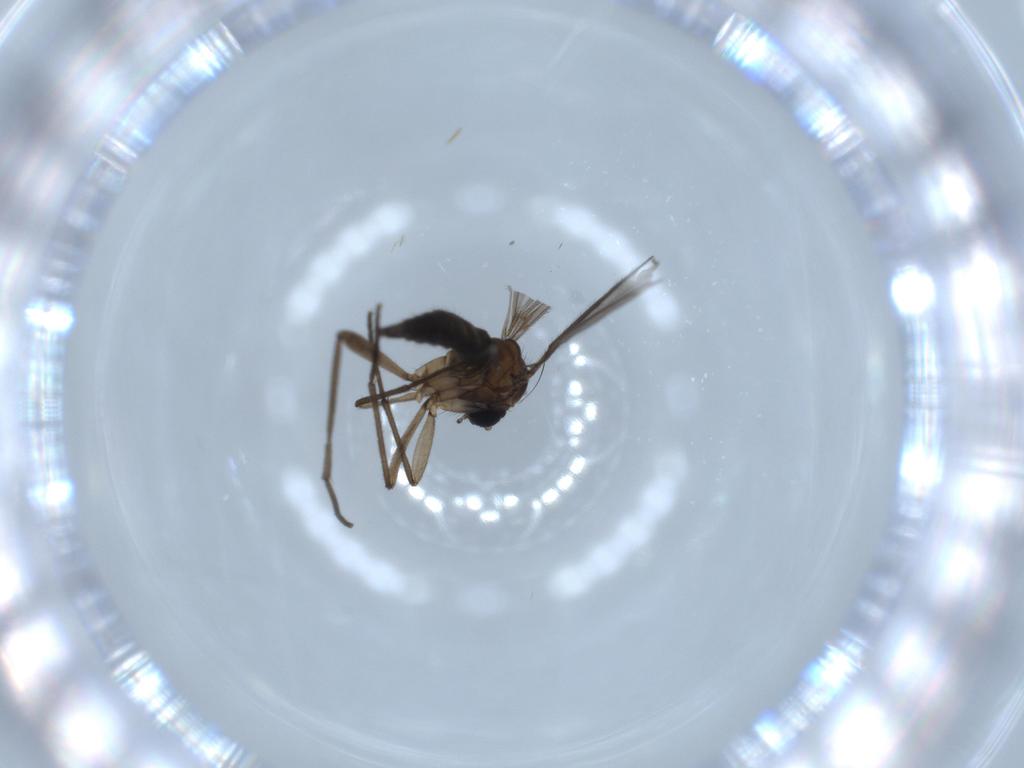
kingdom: Animalia
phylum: Arthropoda
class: Insecta
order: Diptera
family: Sciaridae
